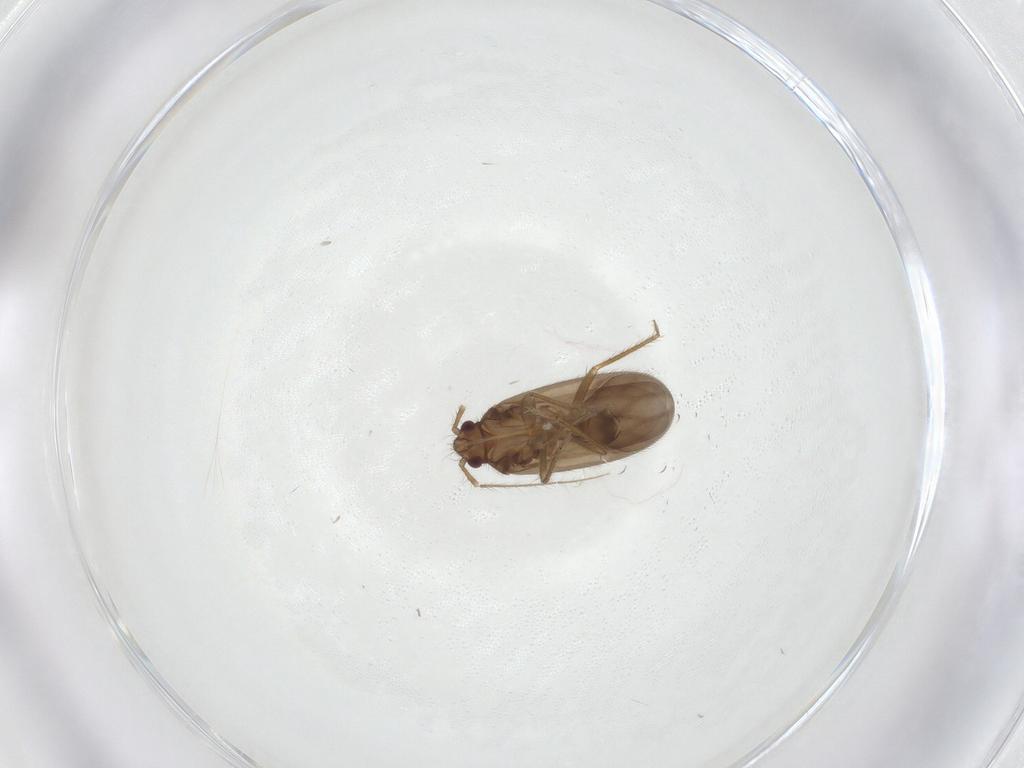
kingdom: Animalia
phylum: Arthropoda
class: Insecta
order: Hemiptera
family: Ceratocombidae
